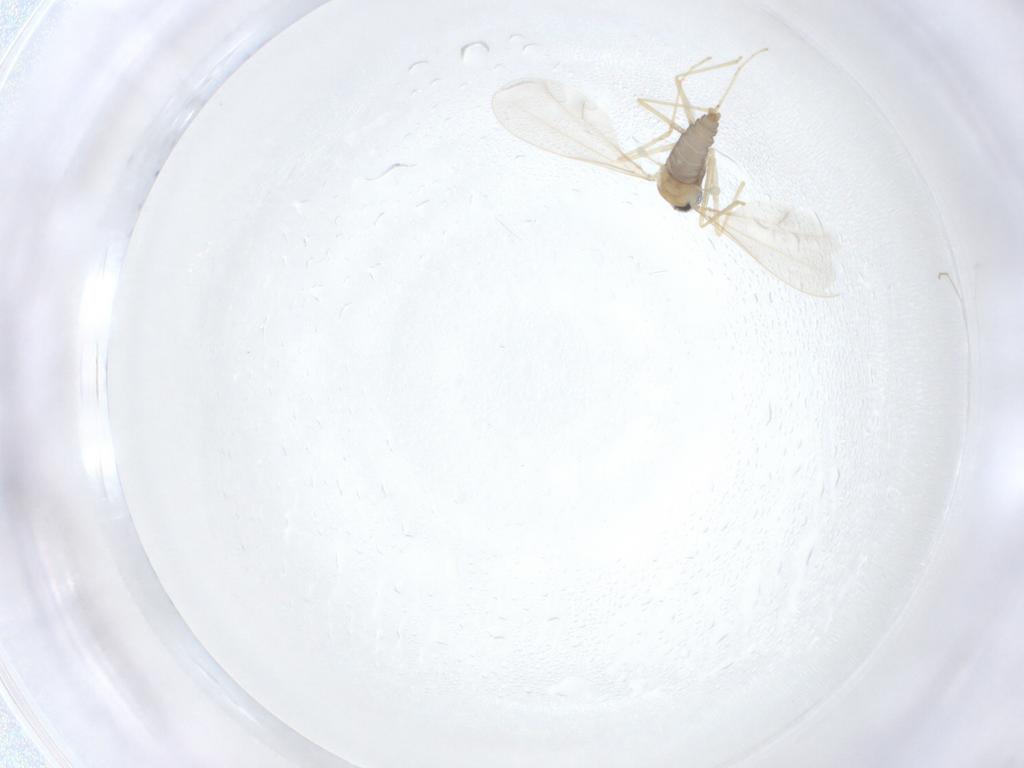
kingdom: Animalia
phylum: Arthropoda
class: Insecta
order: Diptera
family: Cecidomyiidae
